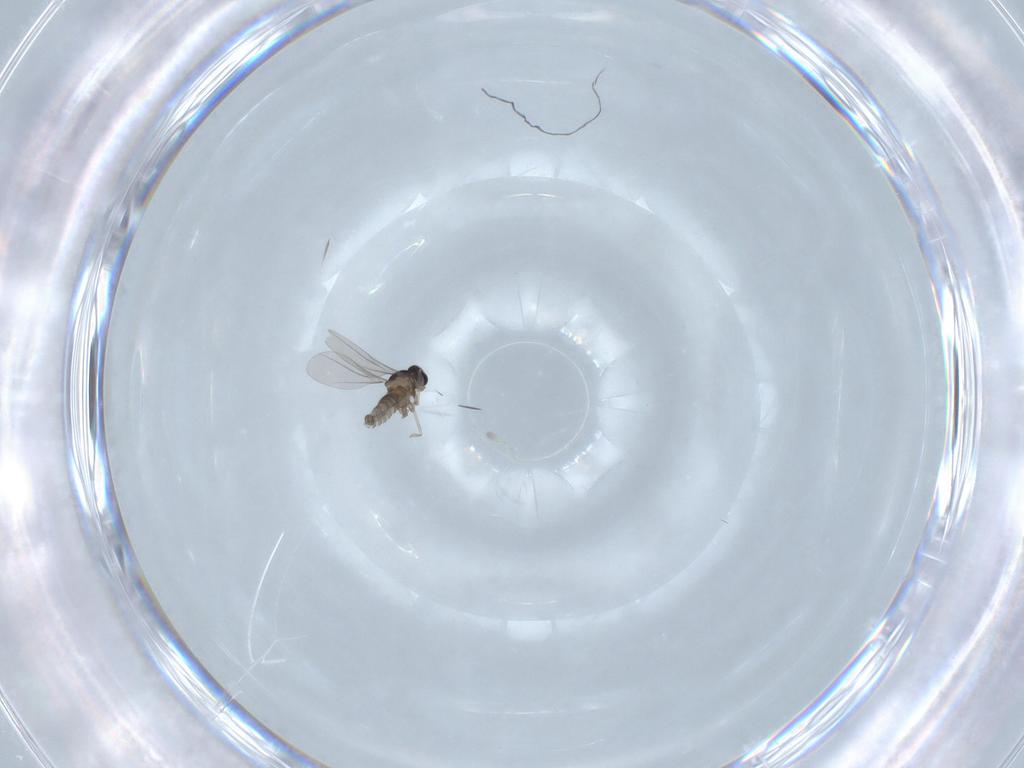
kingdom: Animalia
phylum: Arthropoda
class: Insecta
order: Diptera
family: Cecidomyiidae
